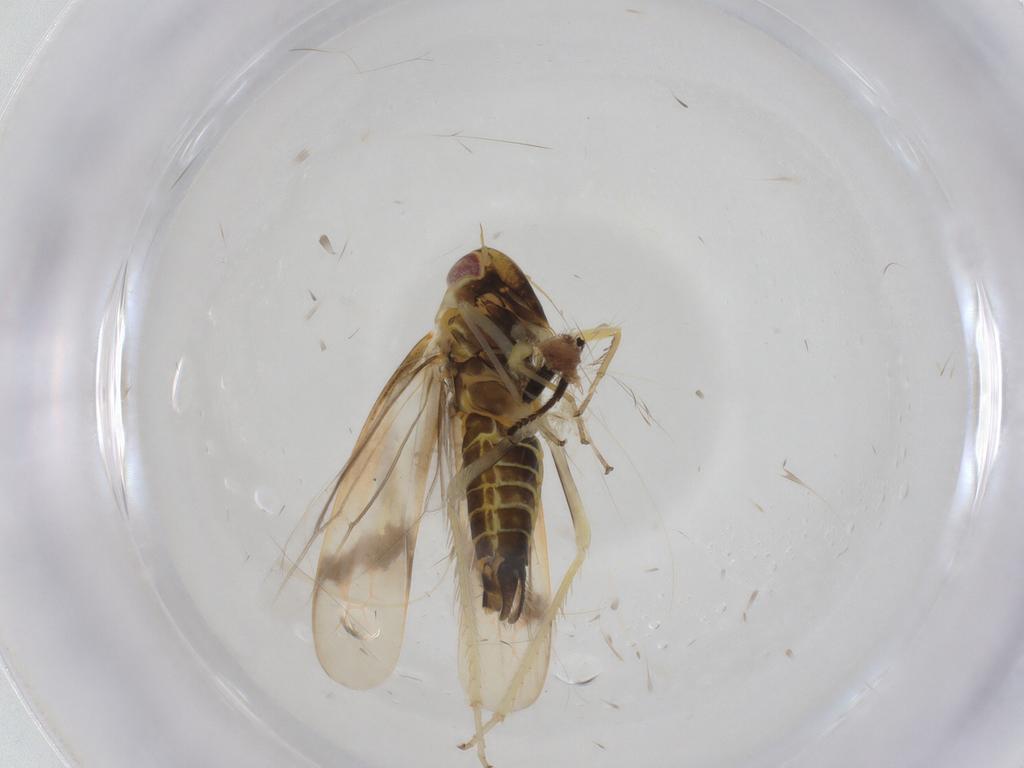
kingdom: Animalia
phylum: Arthropoda
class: Insecta
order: Hemiptera
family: Cicadellidae
